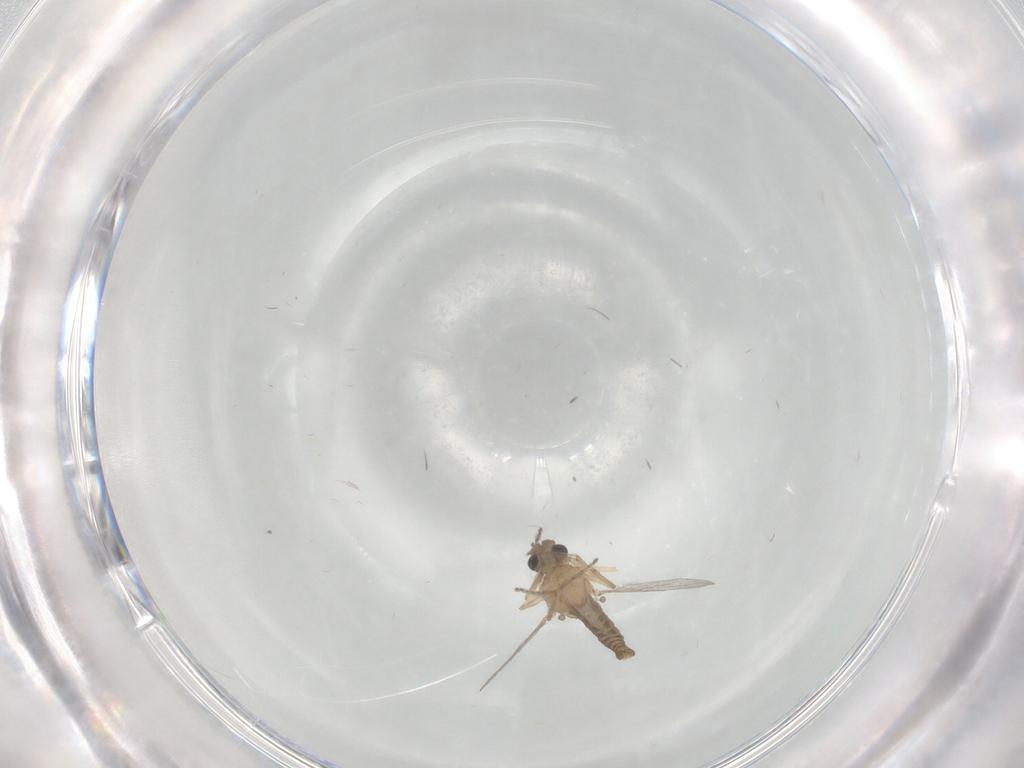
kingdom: Animalia
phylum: Arthropoda
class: Insecta
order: Diptera
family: Ceratopogonidae
